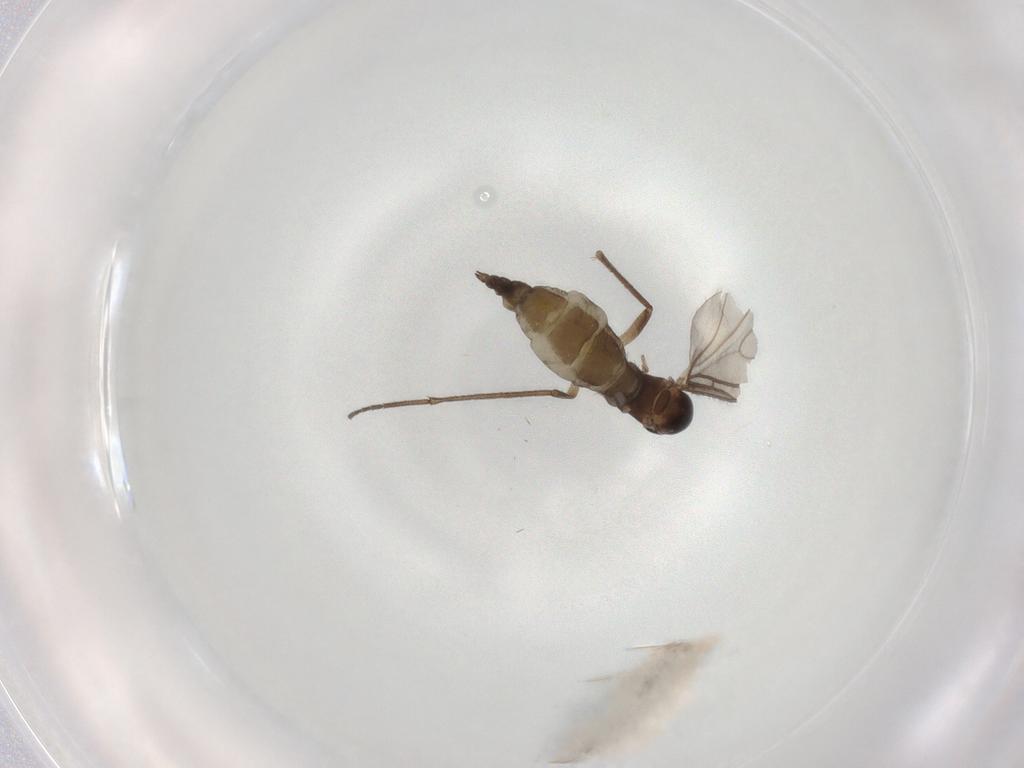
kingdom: Animalia
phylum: Arthropoda
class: Insecta
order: Diptera
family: Sciaridae
